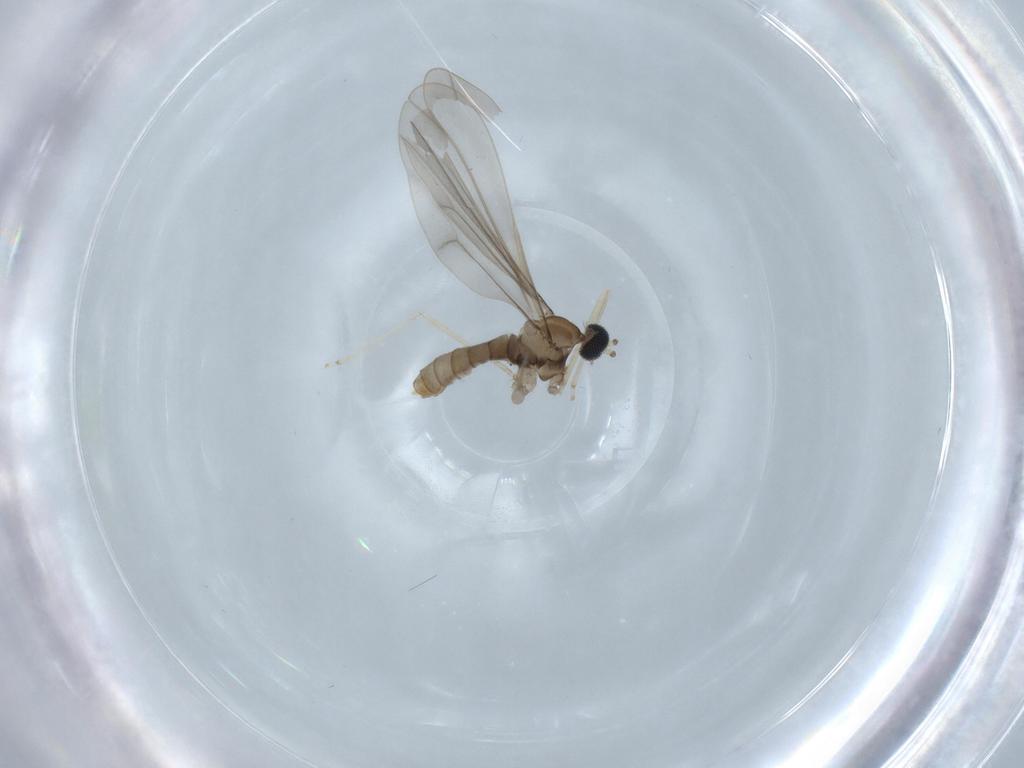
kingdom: Animalia
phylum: Arthropoda
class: Insecta
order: Diptera
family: Cecidomyiidae
